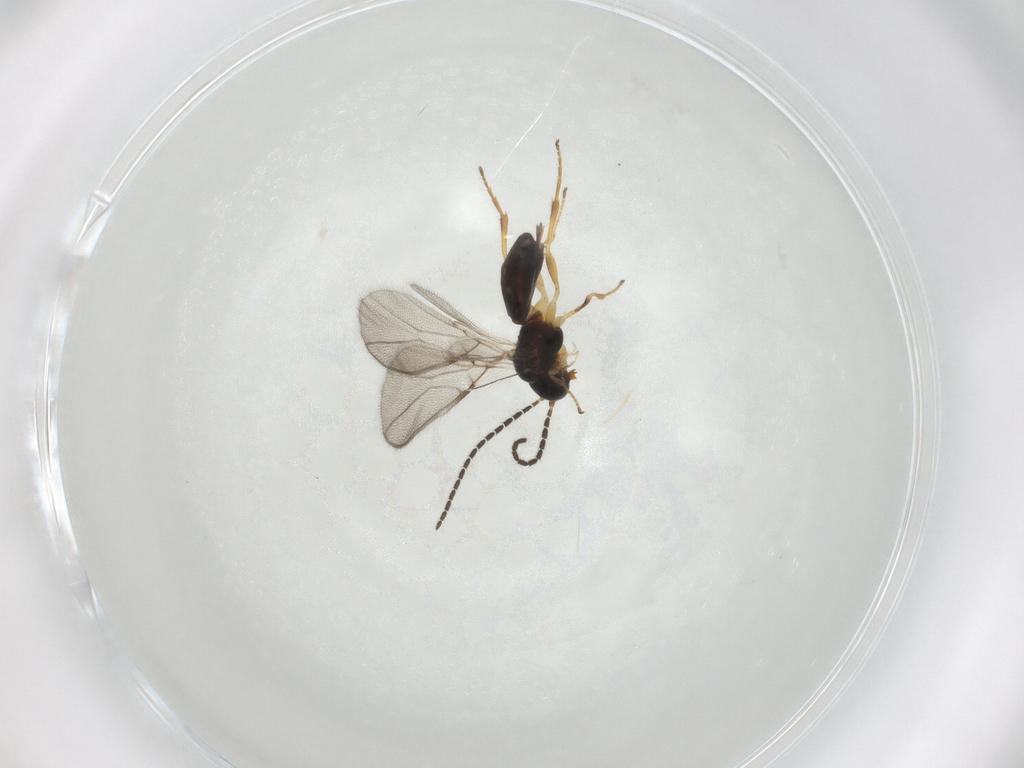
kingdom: Animalia
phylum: Arthropoda
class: Insecta
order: Hymenoptera
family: Braconidae
